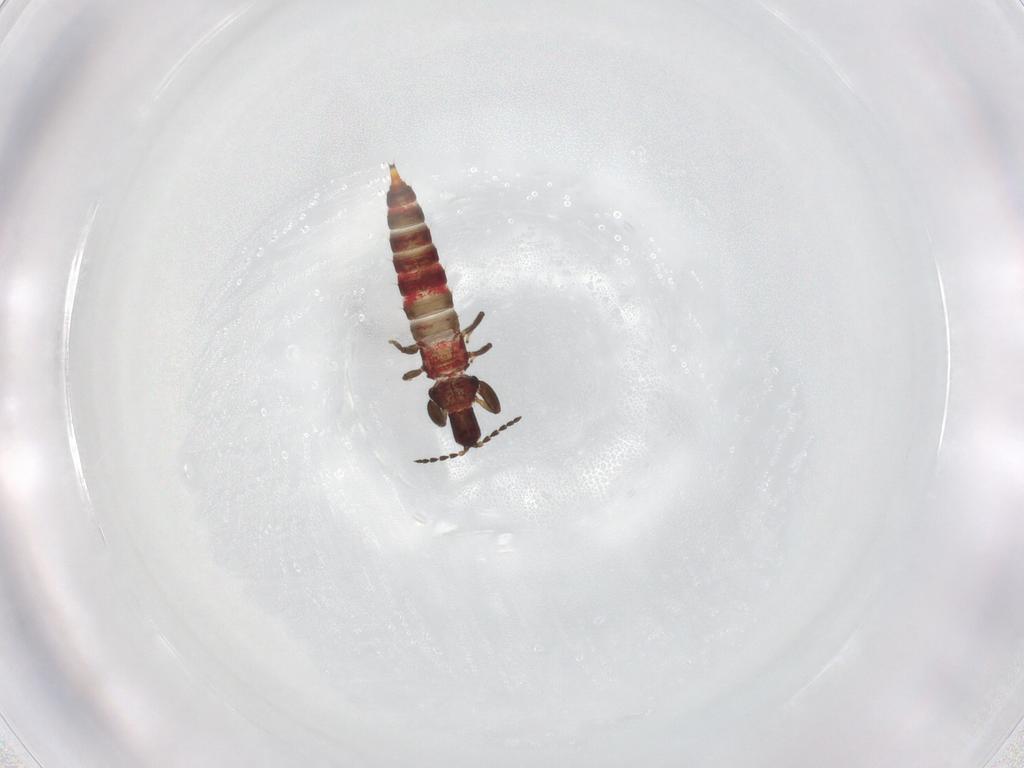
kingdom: Animalia
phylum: Arthropoda
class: Insecta
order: Thysanoptera
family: Phlaeothripidae
